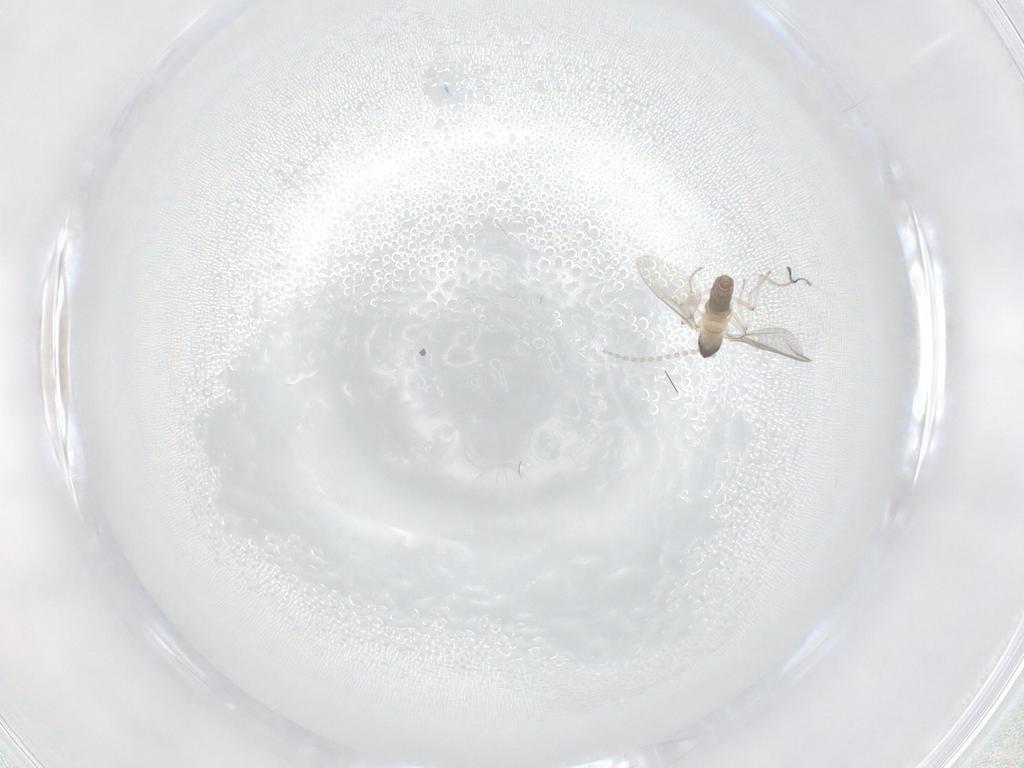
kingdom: Animalia
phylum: Arthropoda
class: Insecta
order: Diptera
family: Cecidomyiidae
